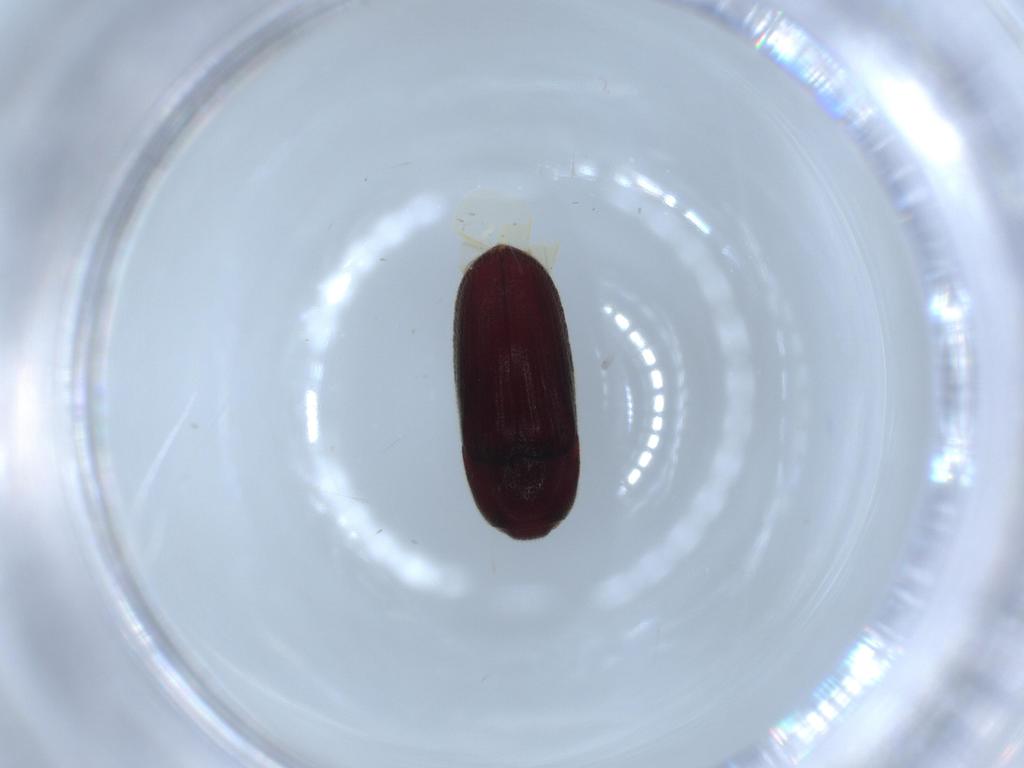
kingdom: Animalia
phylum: Arthropoda
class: Insecta
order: Coleoptera
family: Throscidae
